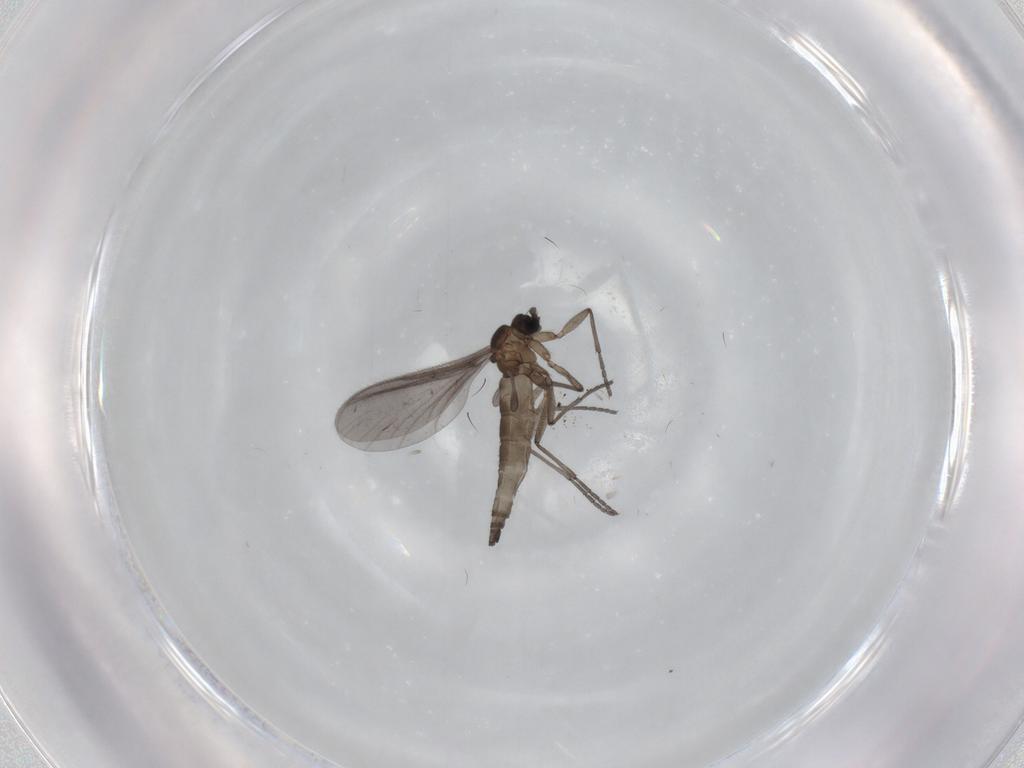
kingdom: Animalia
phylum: Arthropoda
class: Insecta
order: Diptera
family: Sciaridae
